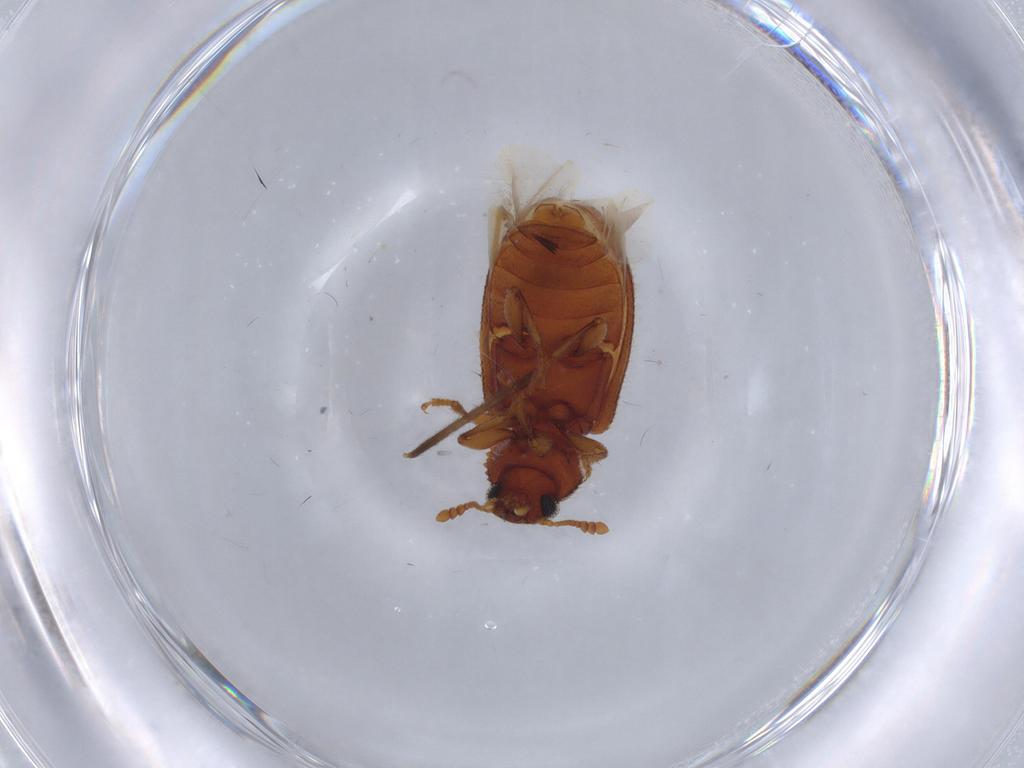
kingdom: Animalia
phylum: Arthropoda
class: Insecta
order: Coleoptera
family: Tenebrionidae
